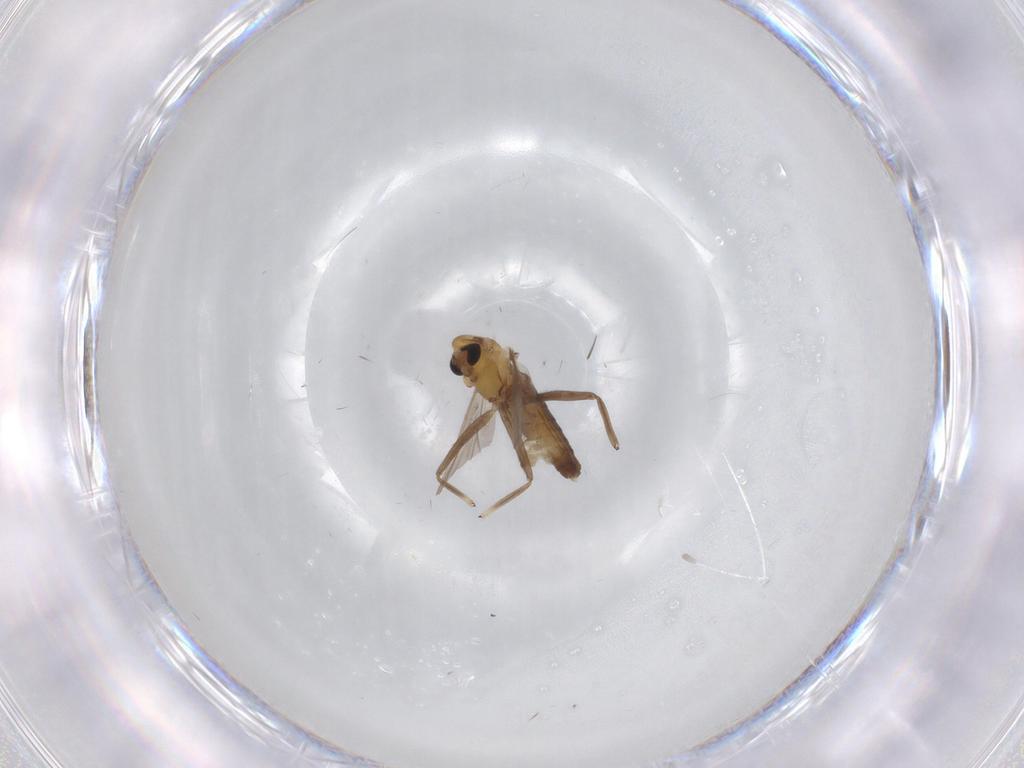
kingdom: Animalia
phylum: Arthropoda
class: Insecta
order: Diptera
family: Chironomidae
